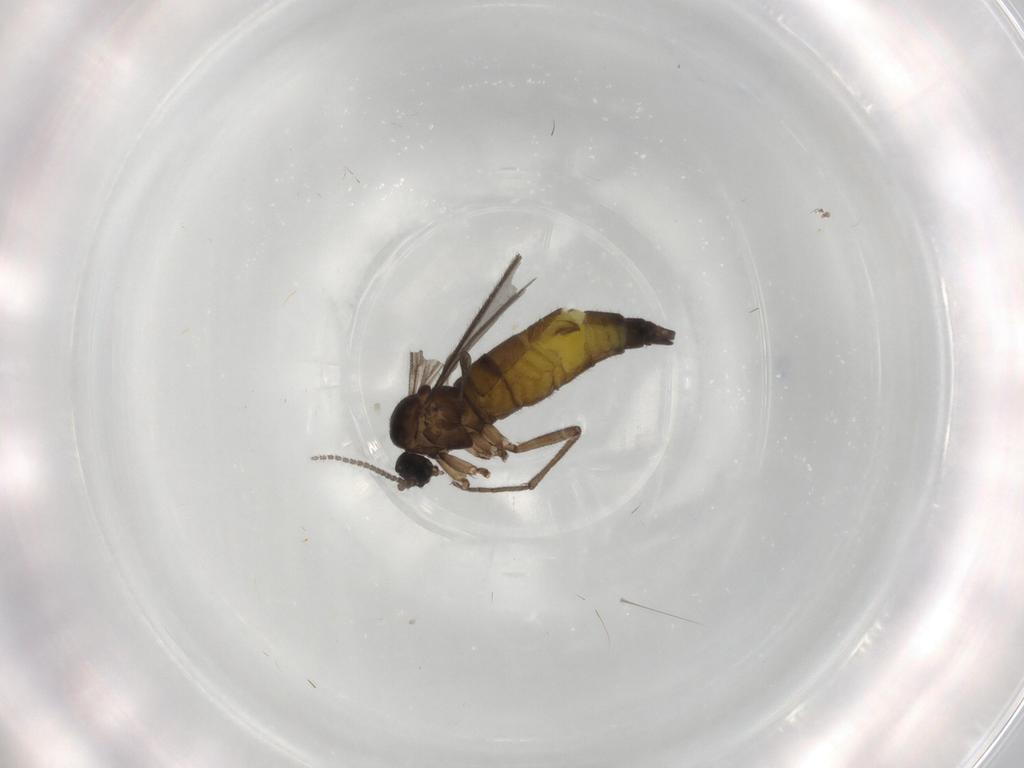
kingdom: Animalia
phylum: Arthropoda
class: Insecta
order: Diptera
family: Sciaridae
